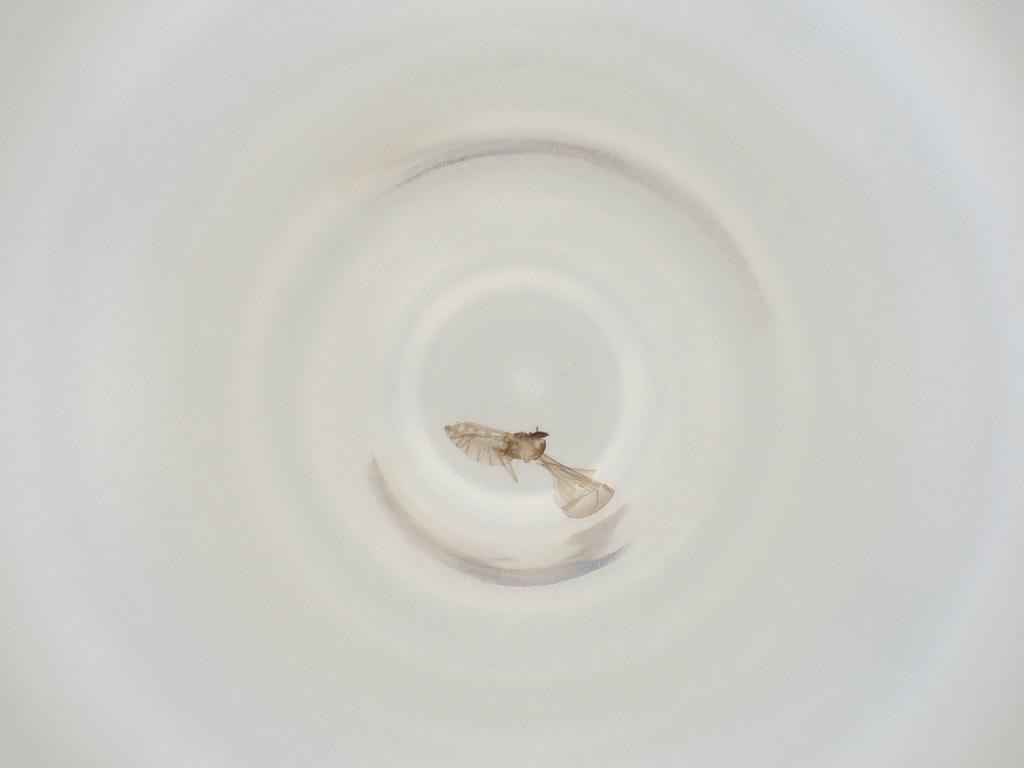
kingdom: Animalia
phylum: Arthropoda
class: Insecta
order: Diptera
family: Cecidomyiidae
